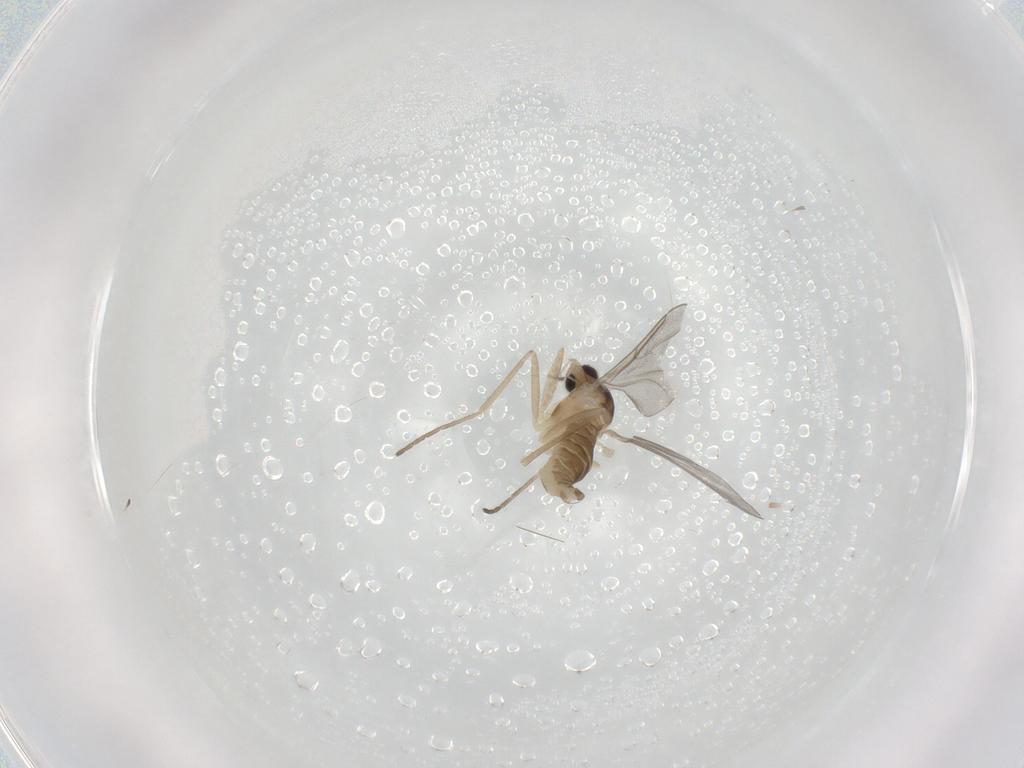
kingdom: Animalia
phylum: Arthropoda
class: Insecta
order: Diptera
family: Cecidomyiidae
